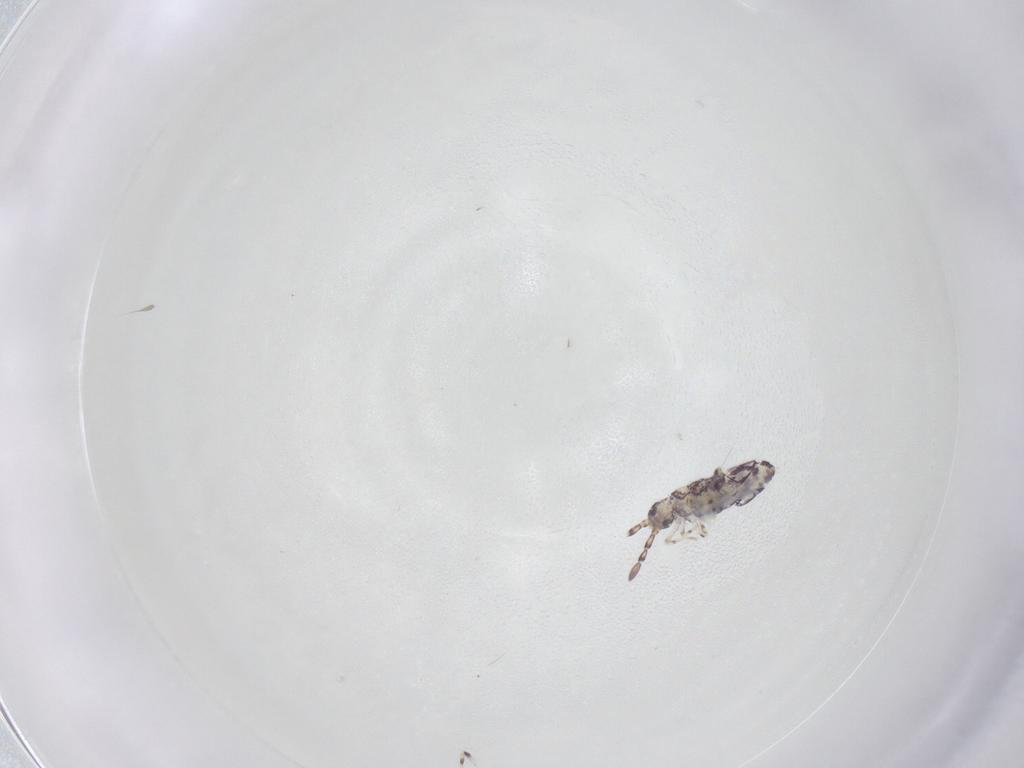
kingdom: Animalia
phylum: Arthropoda
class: Collembola
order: Entomobryomorpha
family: Entomobryidae
